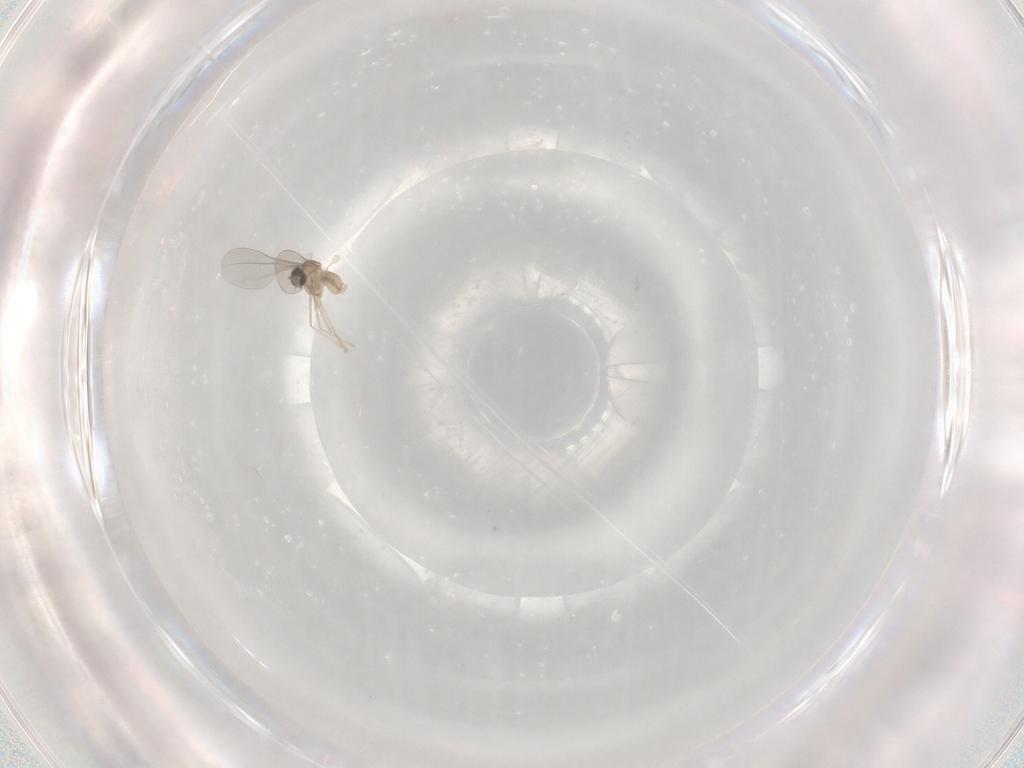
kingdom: Animalia
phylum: Arthropoda
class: Insecta
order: Diptera
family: Cecidomyiidae
